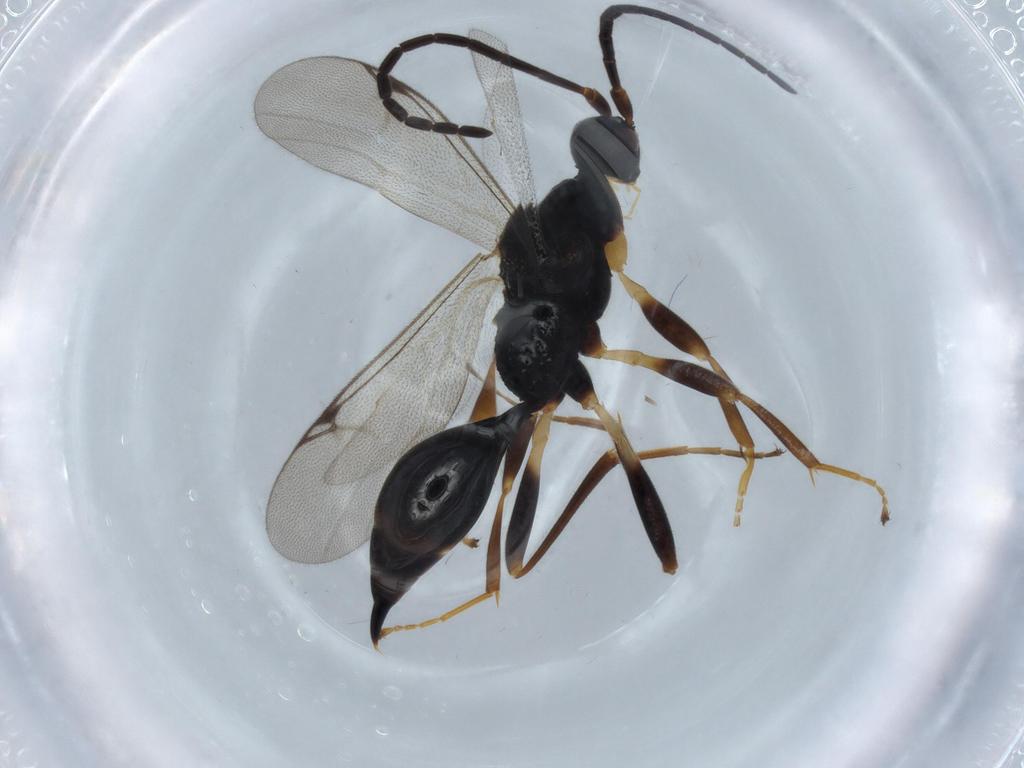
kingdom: Animalia
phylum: Arthropoda
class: Insecta
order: Hymenoptera
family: Proctotrupidae
